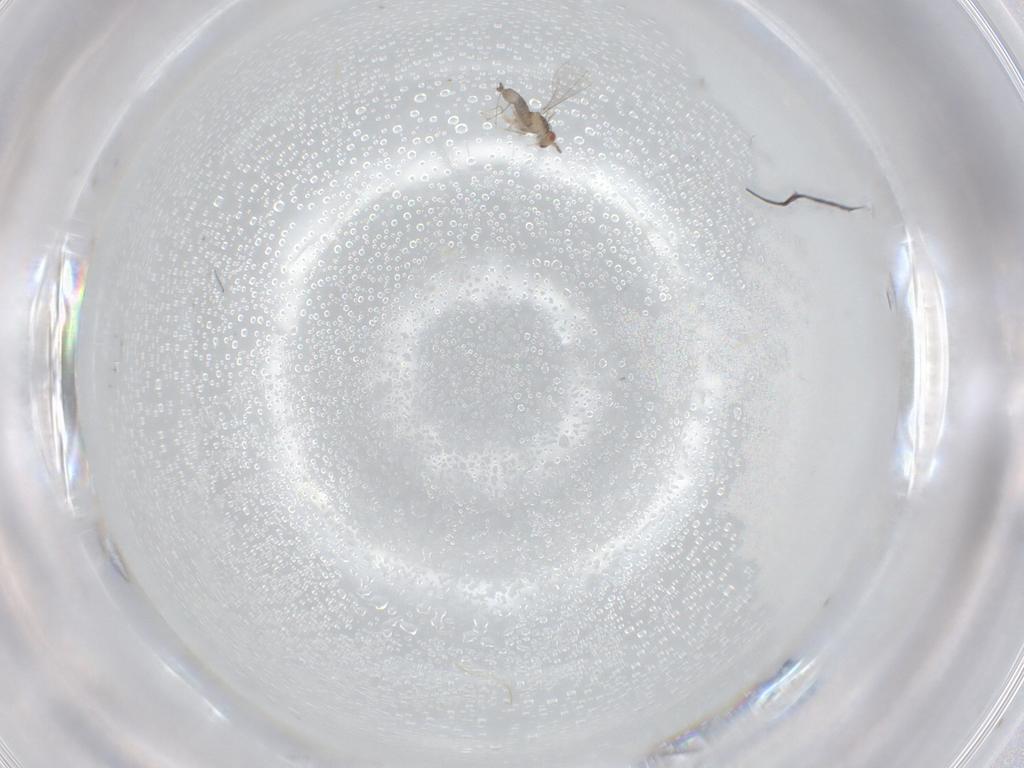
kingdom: Animalia
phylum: Arthropoda
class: Insecta
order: Diptera
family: Cecidomyiidae
